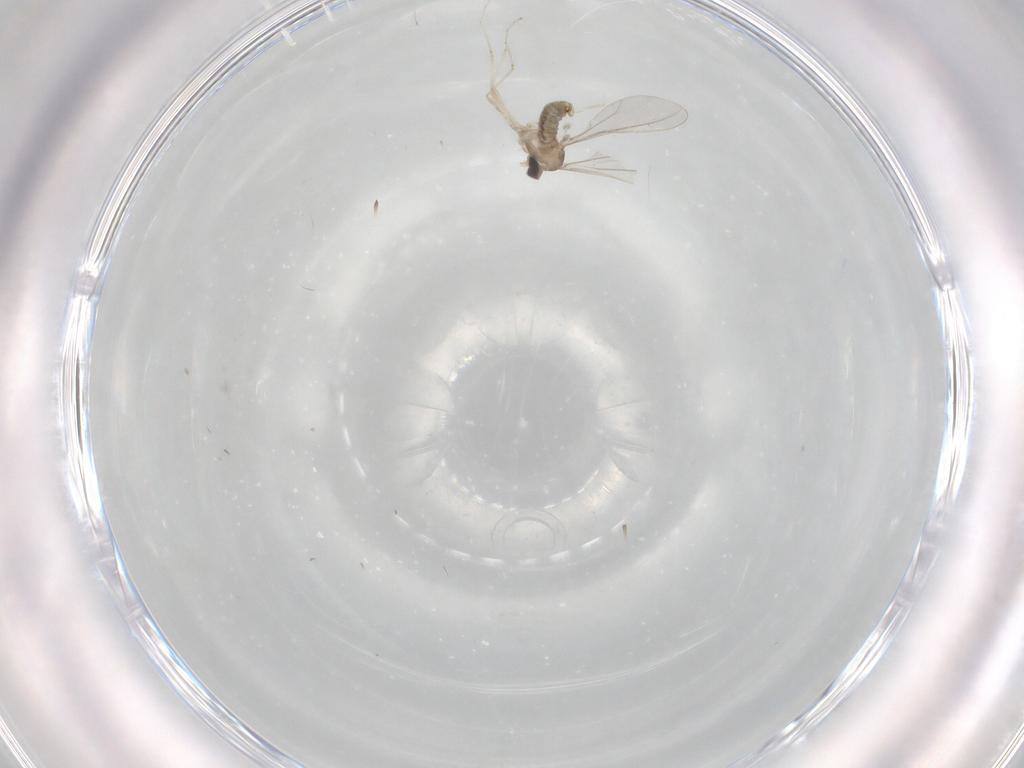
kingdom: Animalia
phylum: Arthropoda
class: Insecta
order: Diptera
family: Cecidomyiidae
